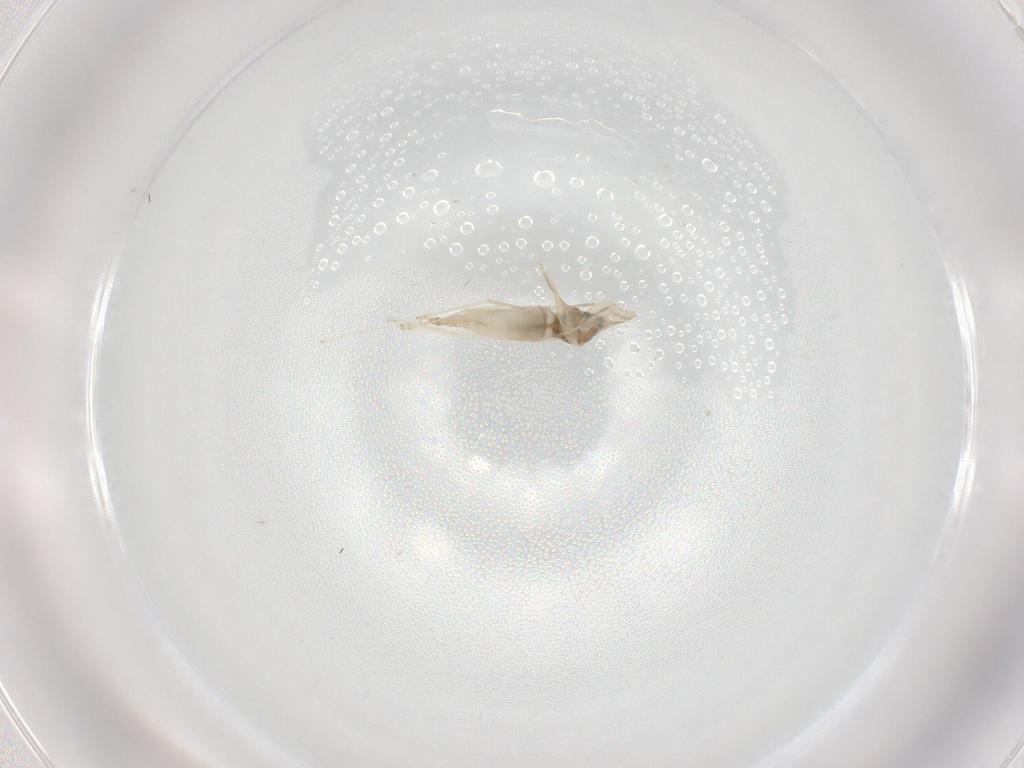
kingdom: Animalia
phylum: Arthropoda
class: Insecta
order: Diptera
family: Cecidomyiidae
